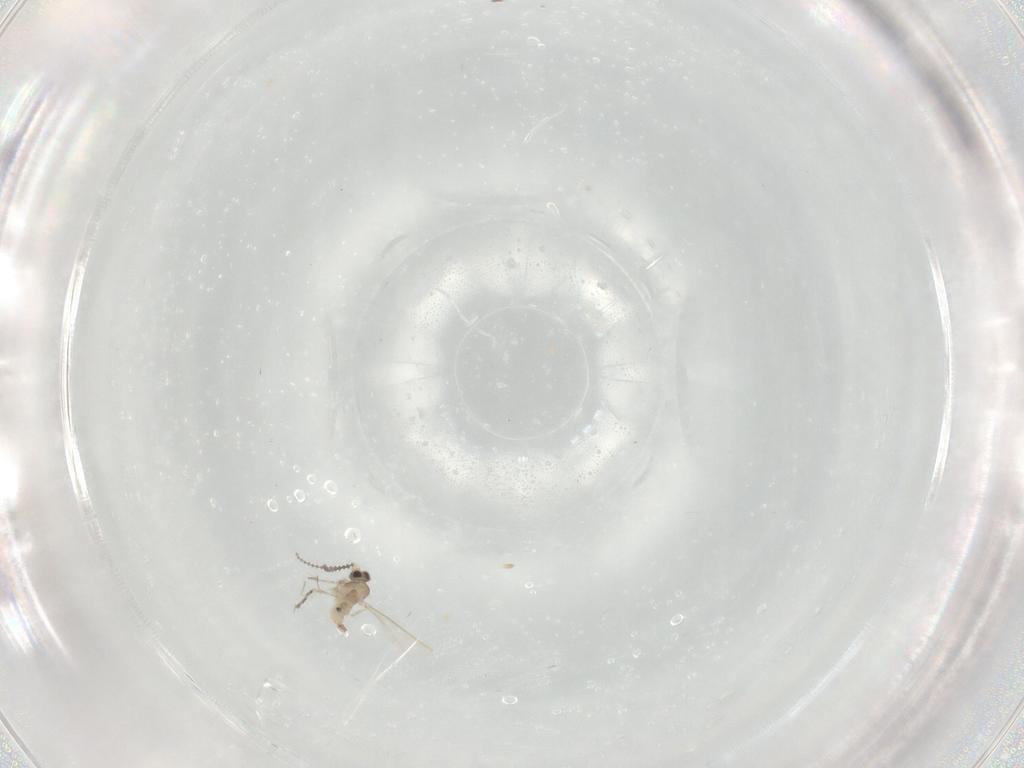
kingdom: Animalia
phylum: Arthropoda
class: Insecta
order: Diptera
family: Cecidomyiidae
